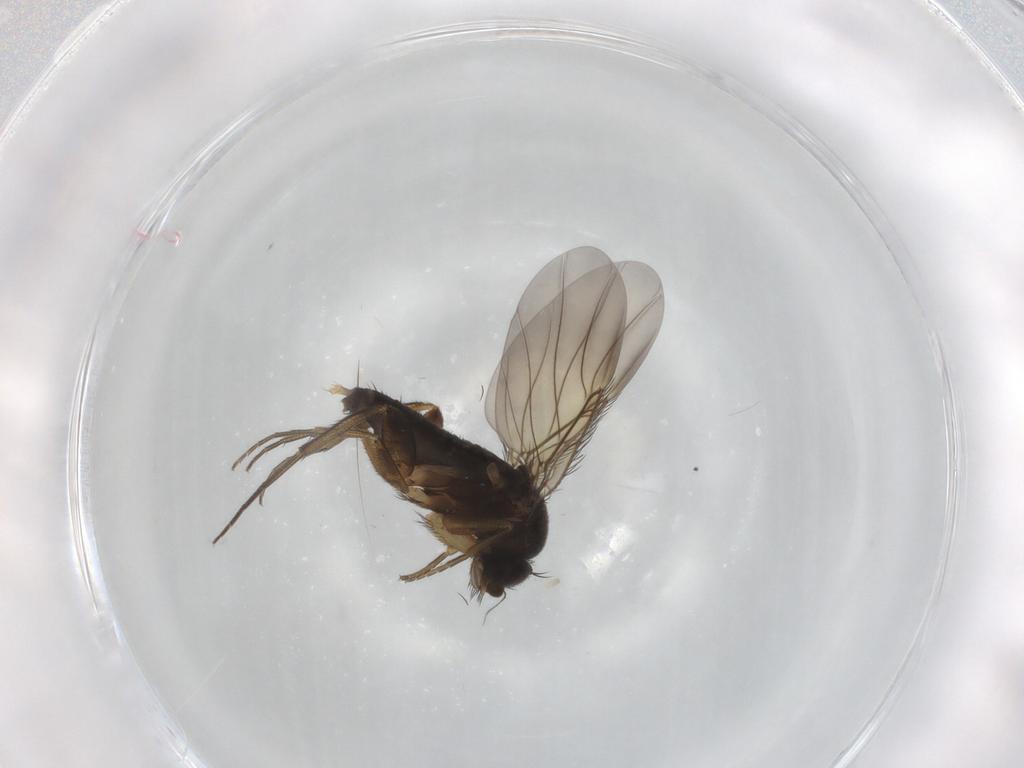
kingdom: Animalia
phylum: Arthropoda
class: Insecta
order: Diptera
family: Phoridae
